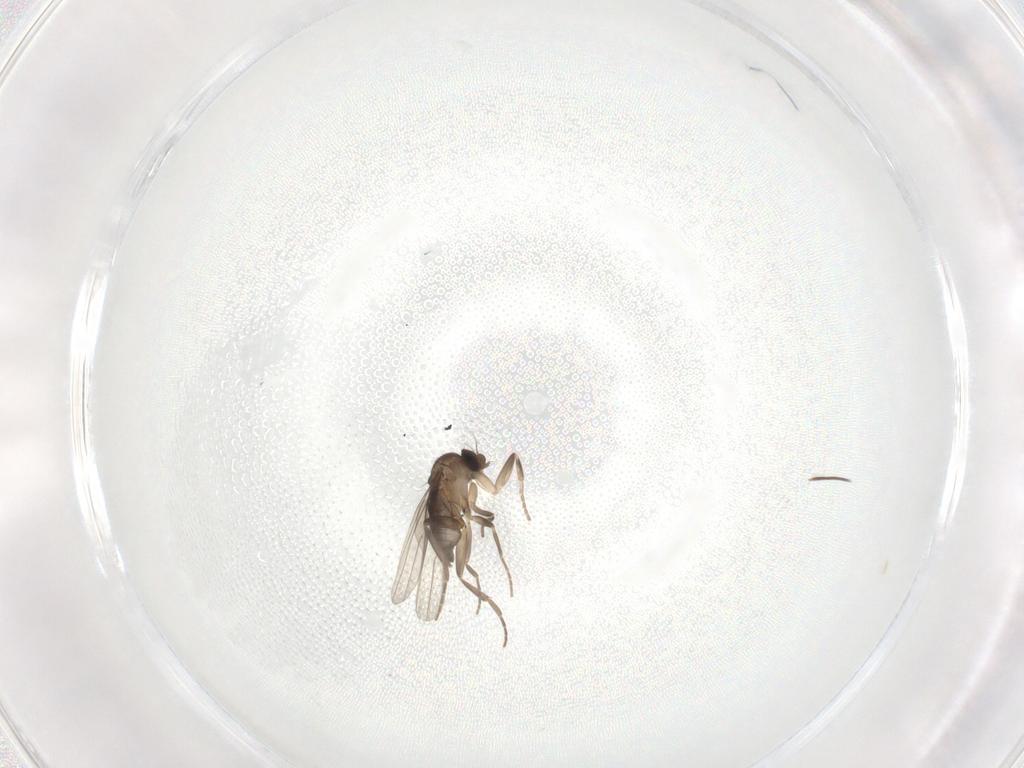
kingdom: Animalia
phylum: Arthropoda
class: Insecta
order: Diptera
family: Phoridae
